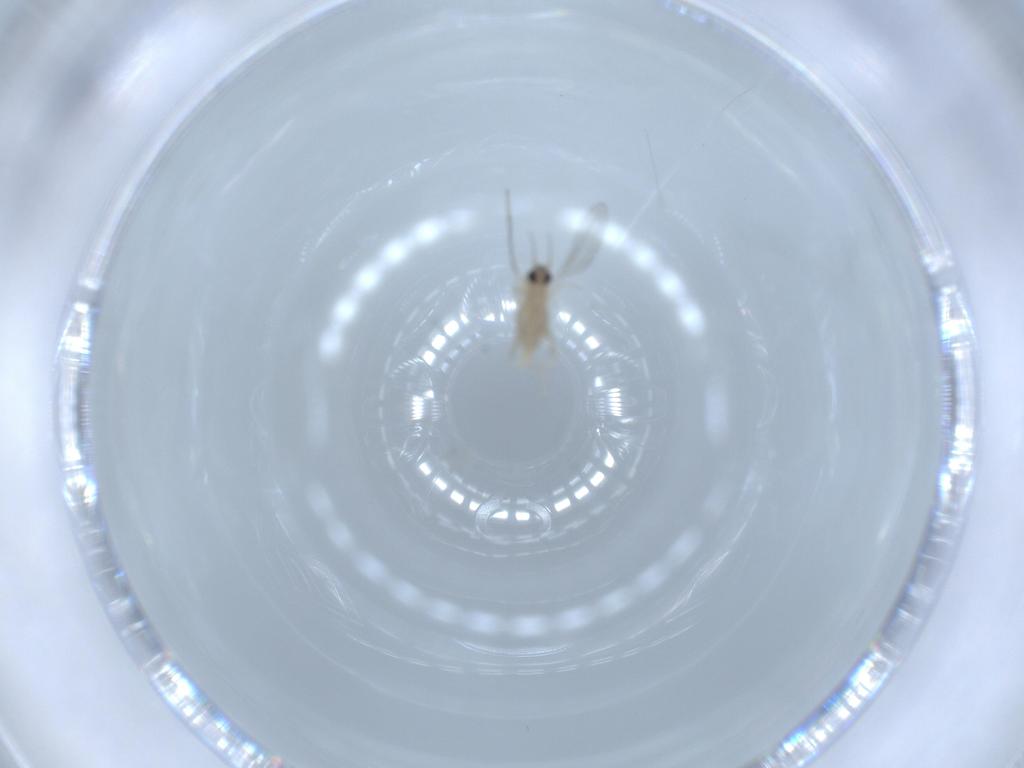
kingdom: Animalia
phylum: Arthropoda
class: Insecta
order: Diptera
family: Cecidomyiidae
